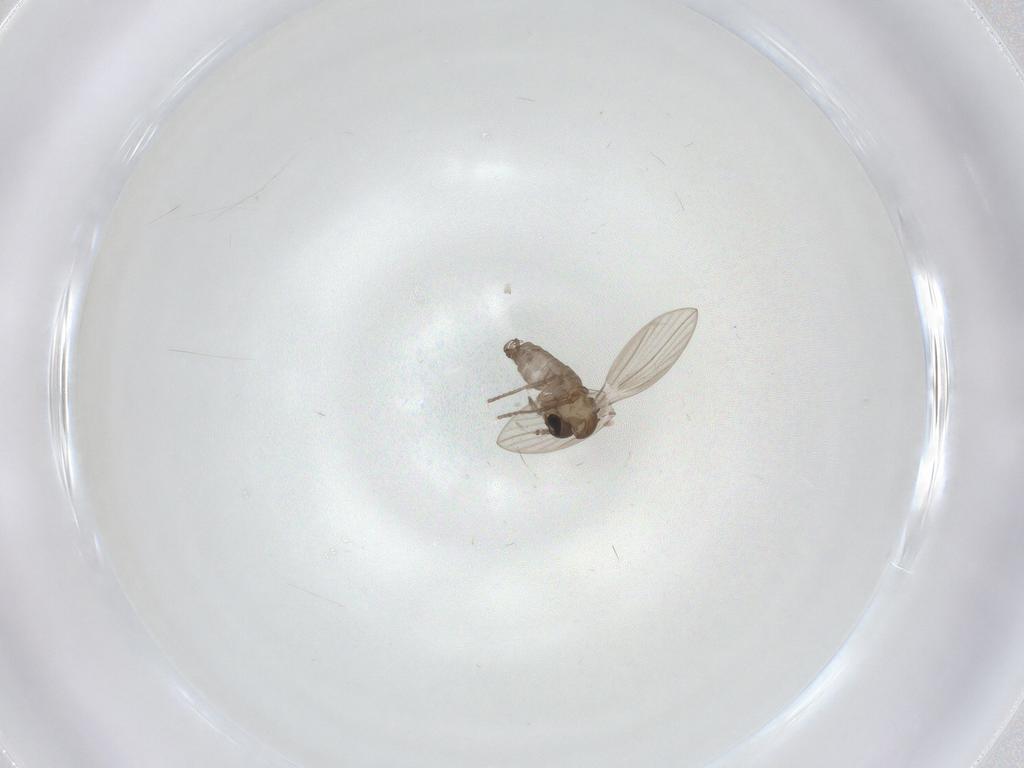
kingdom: Animalia
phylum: Arthropoda
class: Insecta
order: Diptera
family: Psychodidae
